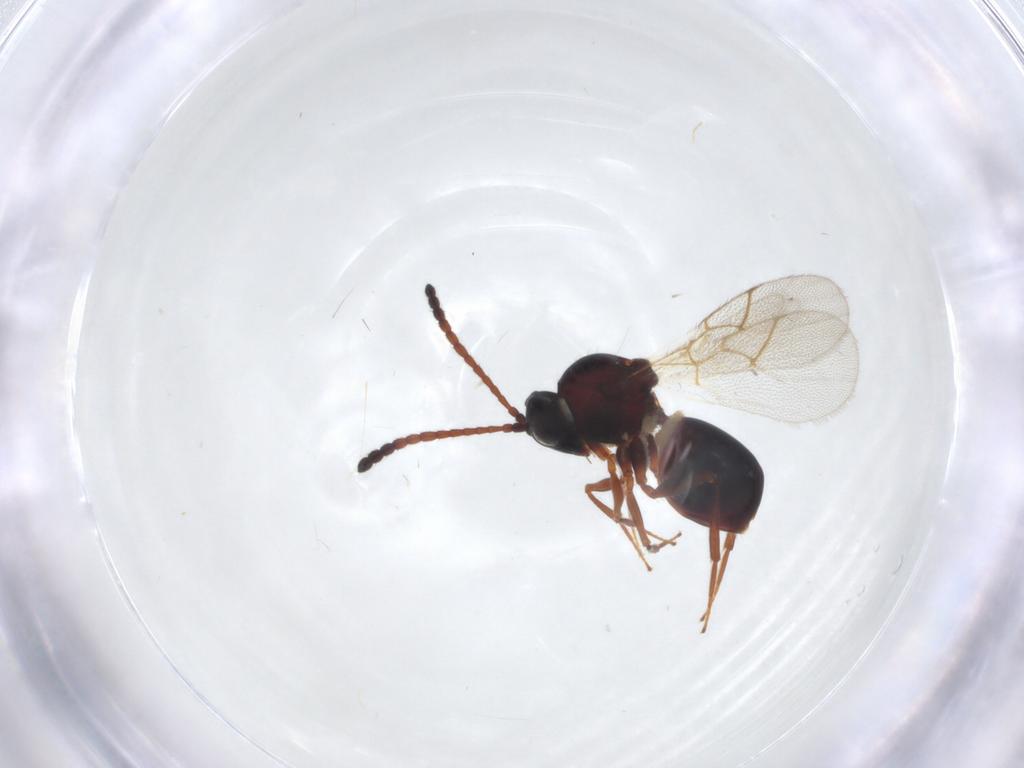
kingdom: Animalia
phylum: Arthropoda
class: Insecta
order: Hymenoptera
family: Figitidae
